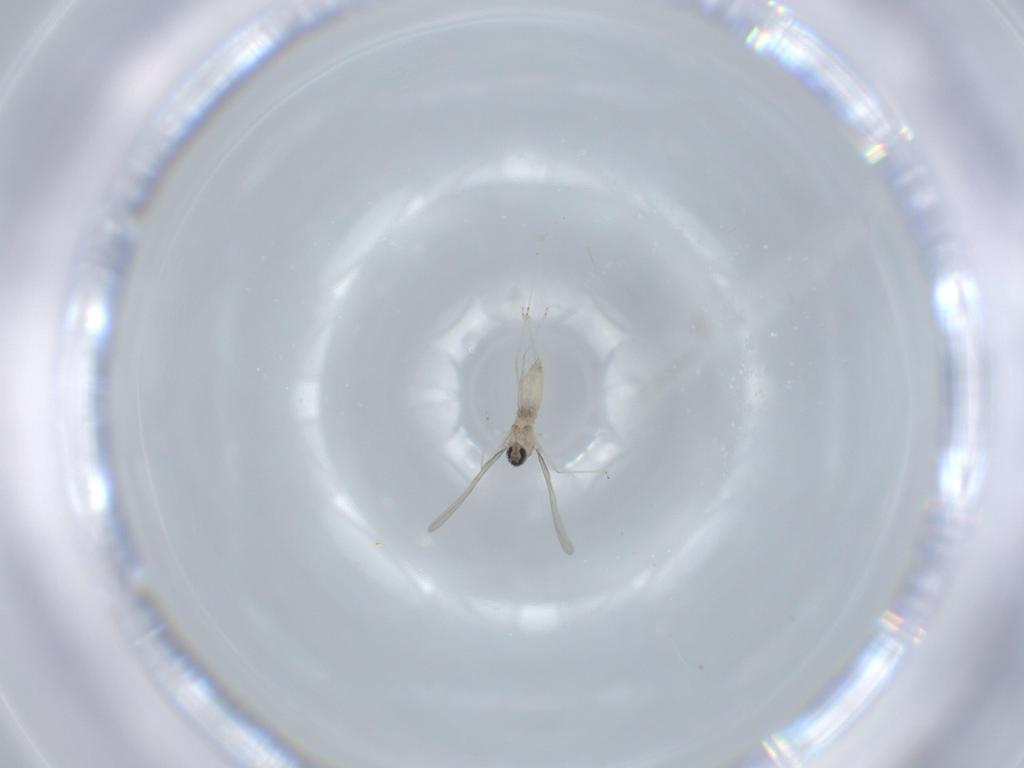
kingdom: Animalia
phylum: Arthropoda
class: Insecta
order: Diptera
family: Cecidomyiidae
